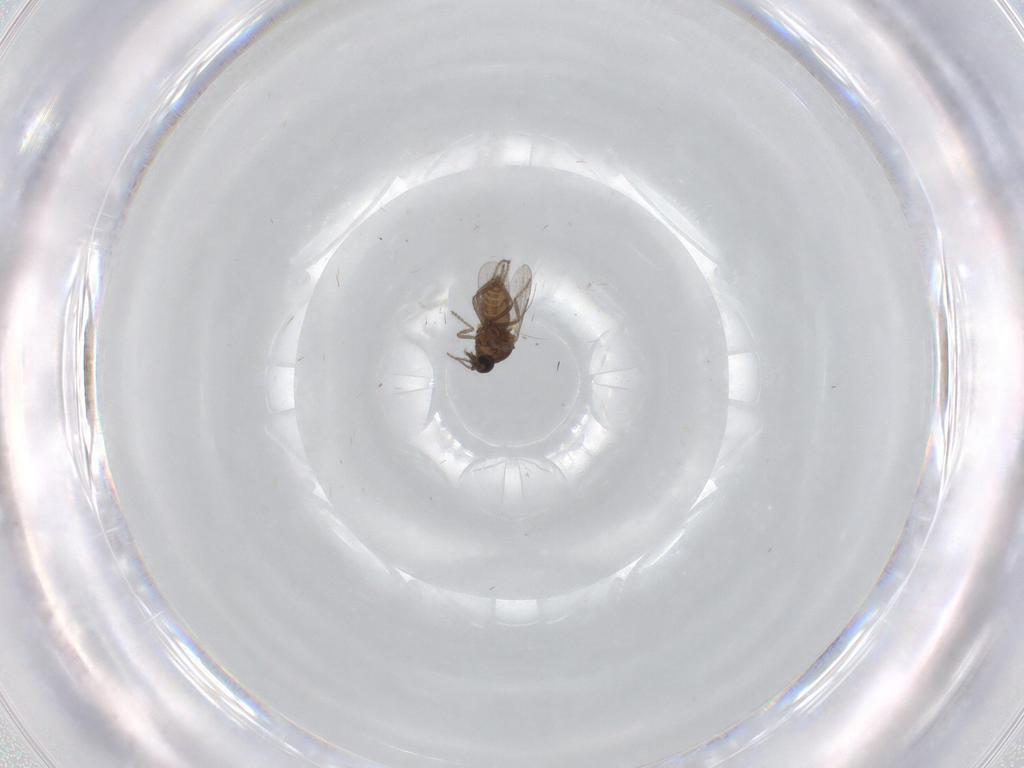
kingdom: Animalia
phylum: Arthropoda
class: Insecta
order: Diptera
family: Ceratopogonidae
